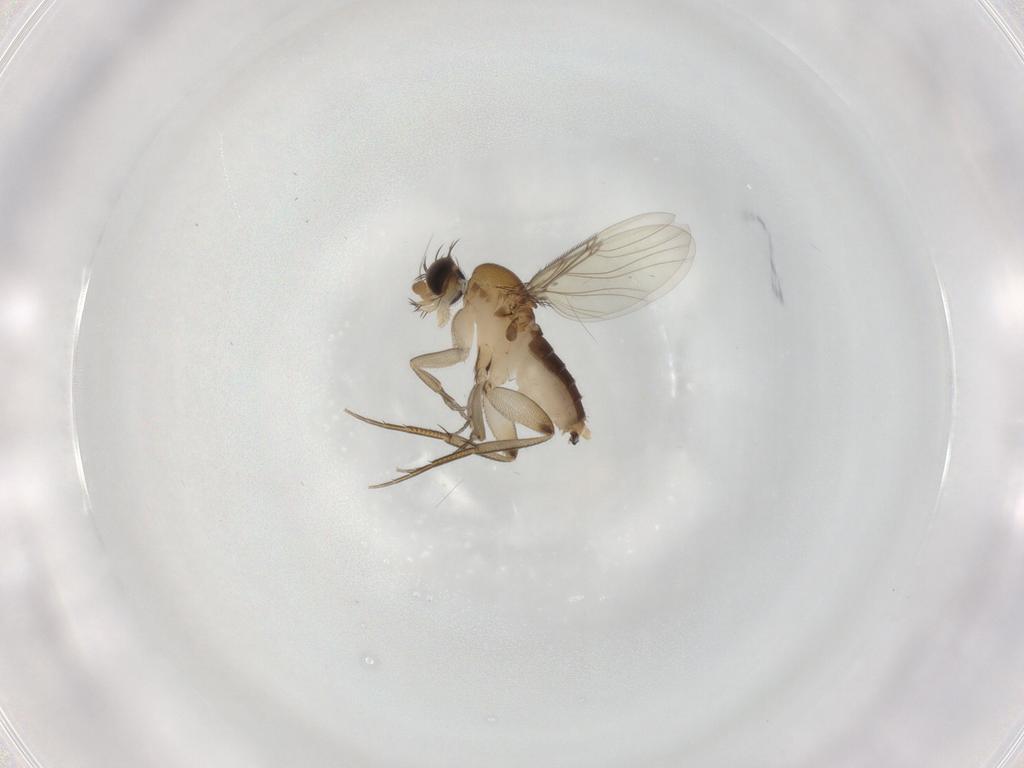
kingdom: Animalia
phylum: Arthropoda
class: Insecta
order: Diptera
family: Phoridae
